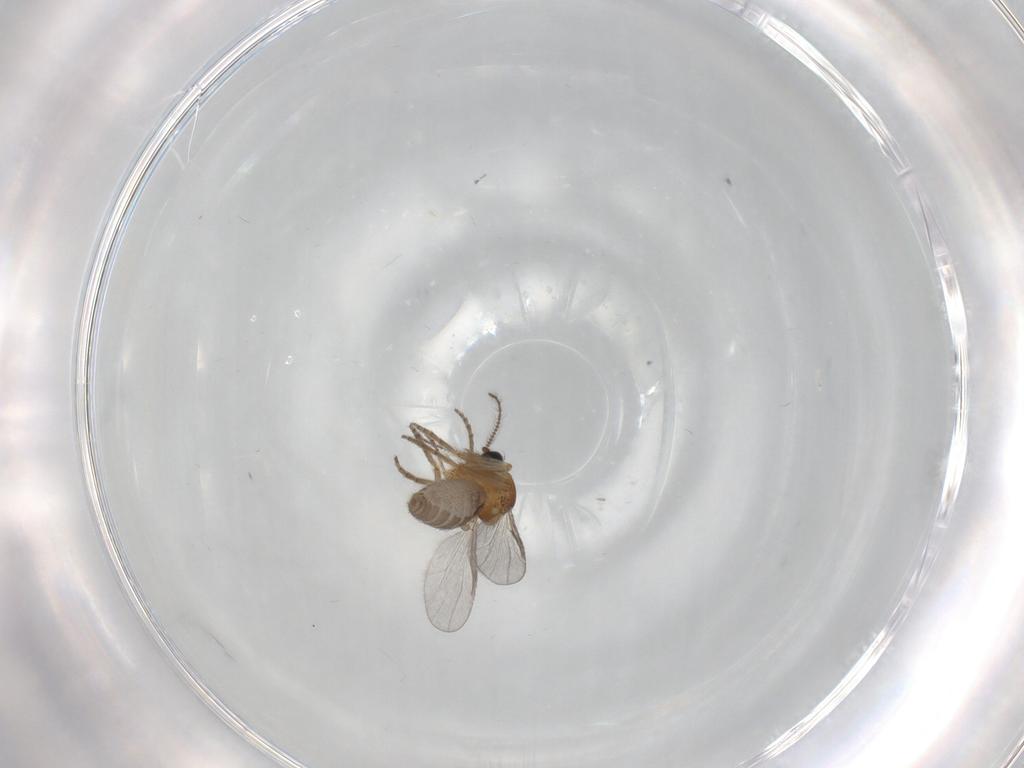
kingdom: Animalia
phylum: Arthropoda
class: Insecta
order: Diptera
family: Ceratopogonidae
